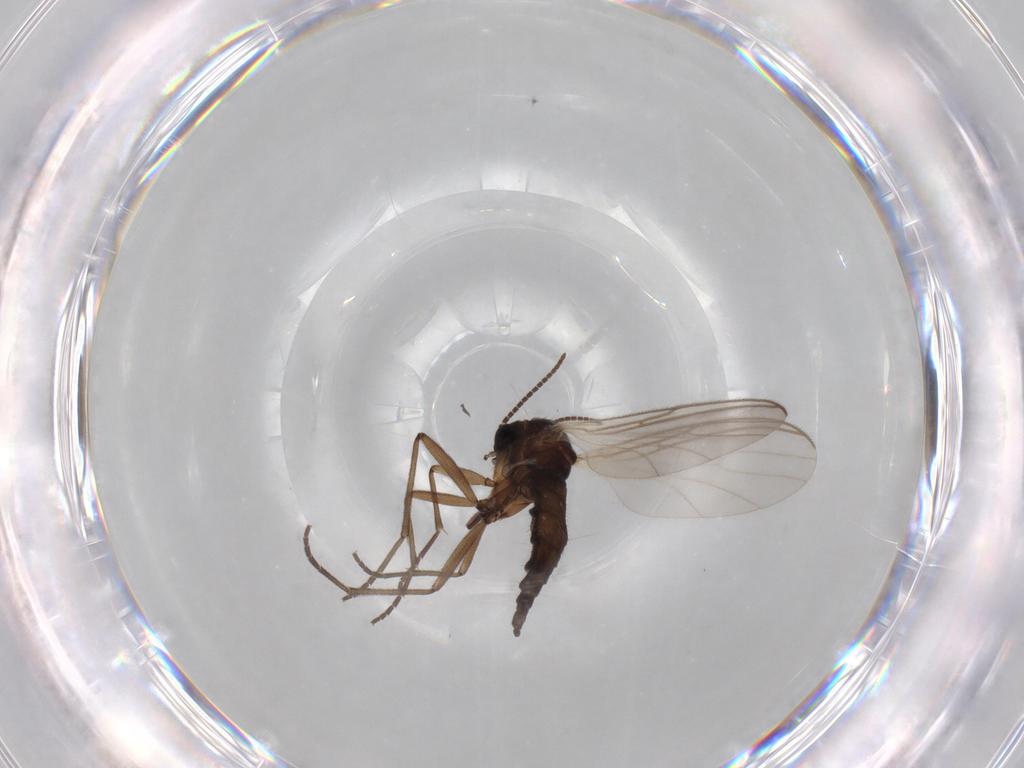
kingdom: Animalia
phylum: Arthropoda
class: Insecta
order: Diptera
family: Sciaridae
